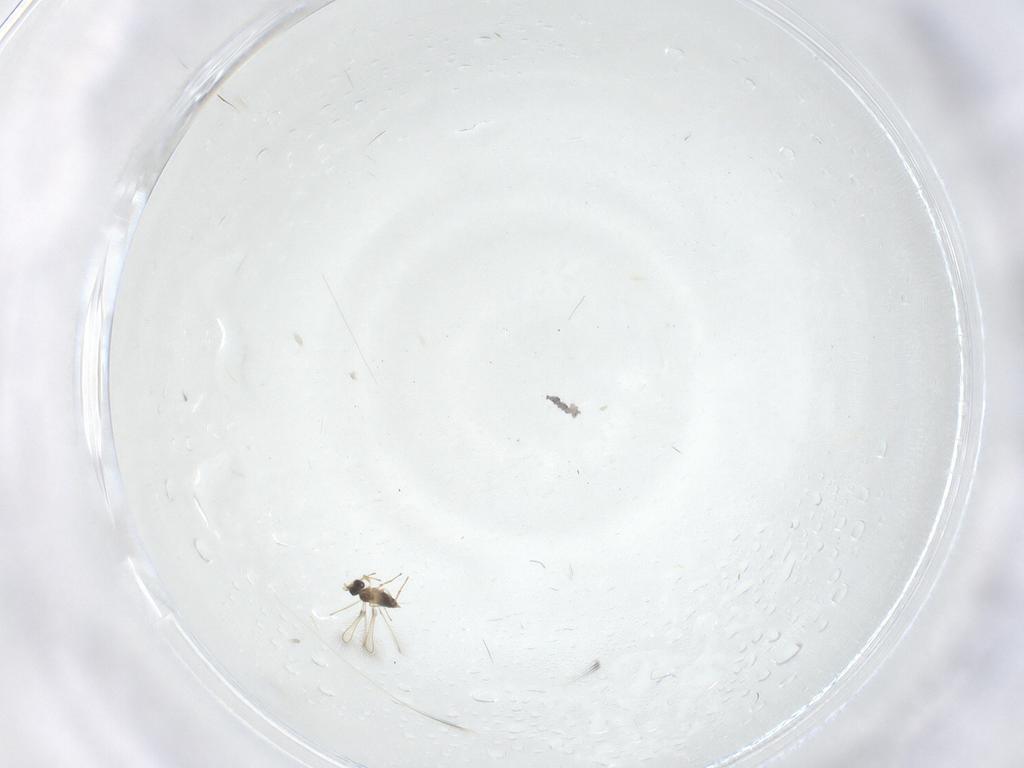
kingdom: Animalia
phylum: Arthropoda
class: Insecta
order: Hymenoptera
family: Mymaridae
